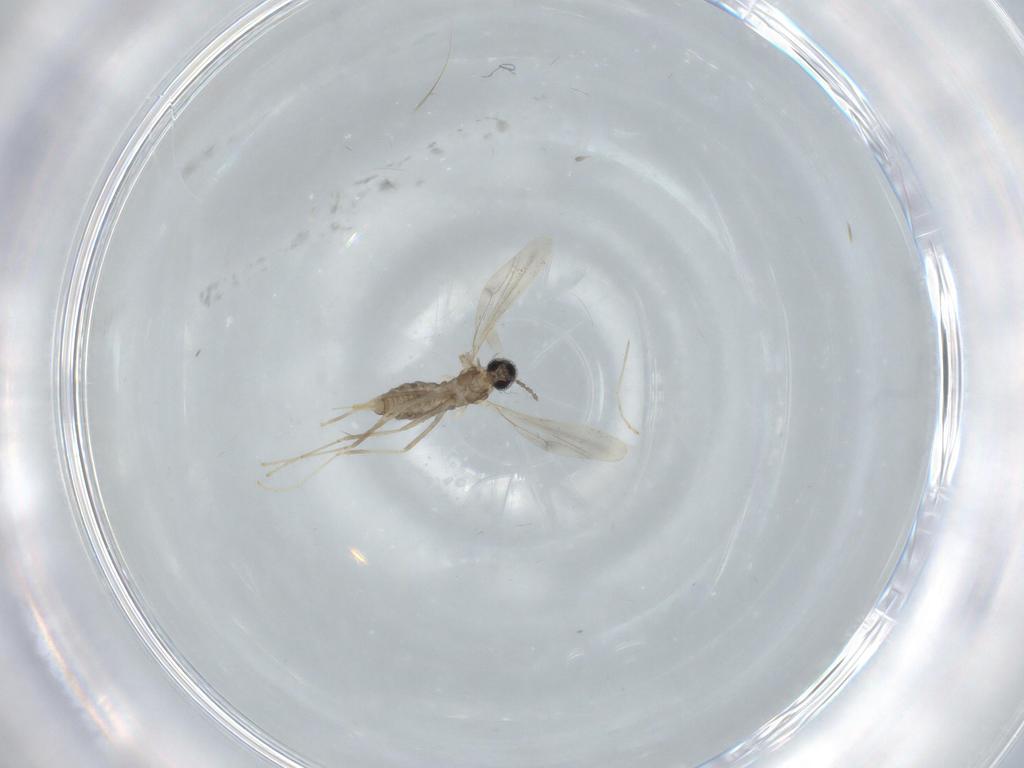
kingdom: Animalia
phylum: Arthropoda
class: Insecta
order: Diptera
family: Cecidomyiidae
